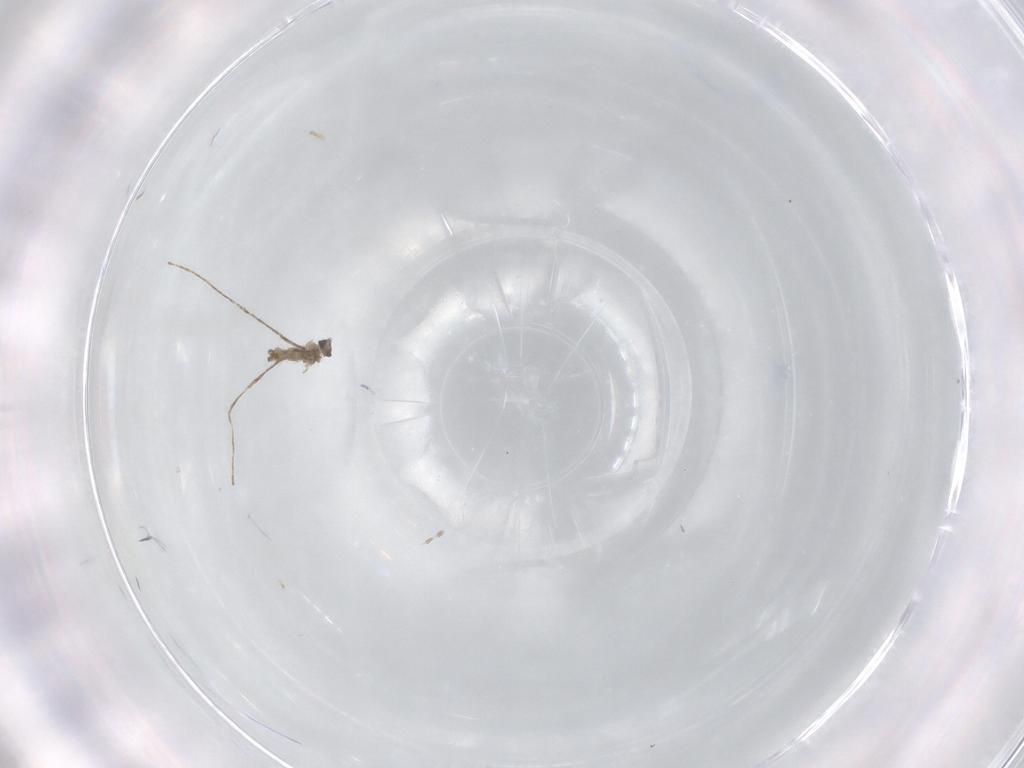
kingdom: Animalia
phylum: Arthropoda
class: Insecta
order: Diptera
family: Cecidomyiidae
